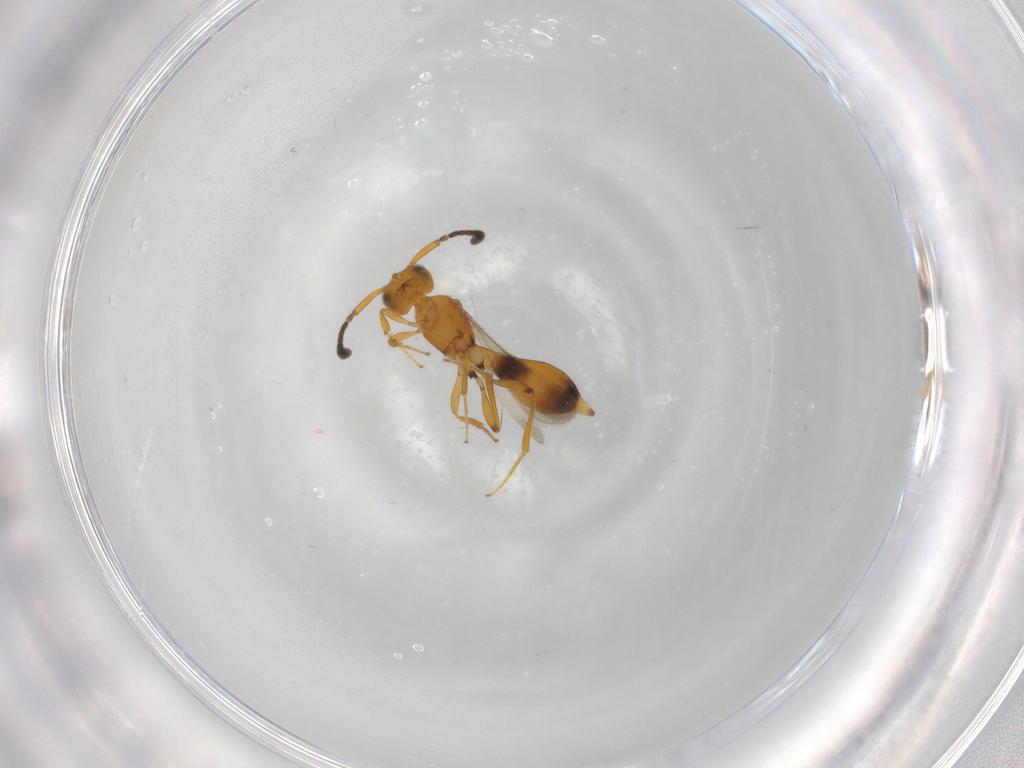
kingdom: Animalia
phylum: Arthropoda
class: Insecta
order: Hymenoptera
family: Scelionidae
